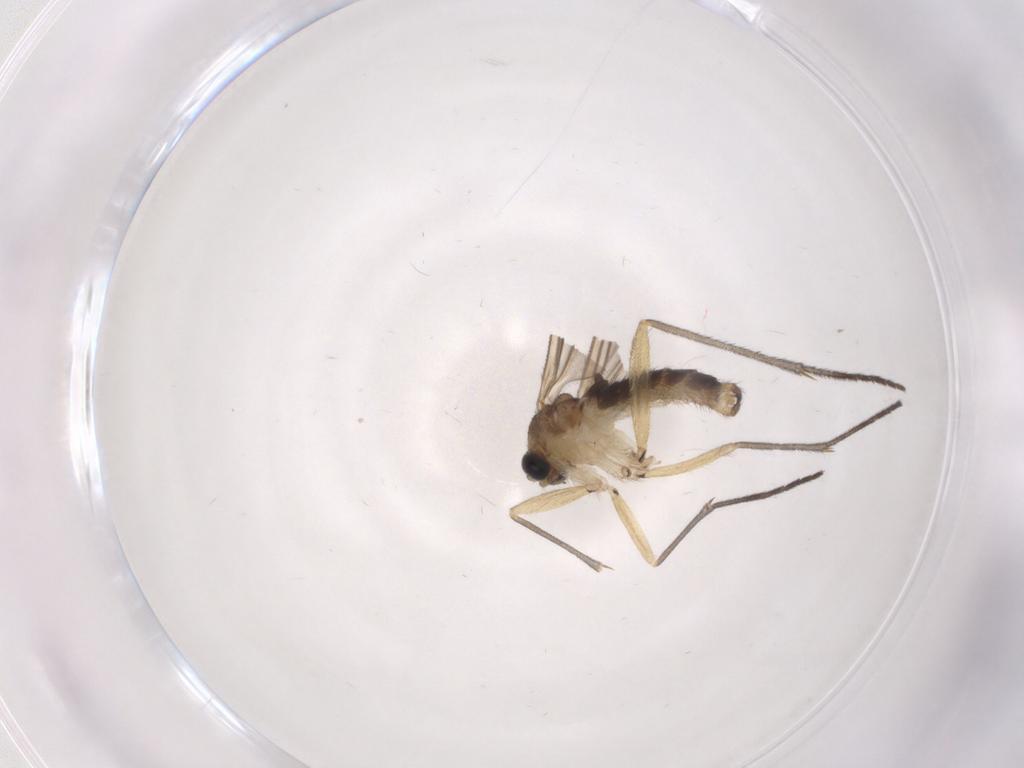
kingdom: Animalia
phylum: Arthropoda
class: Insecta
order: Diptera
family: Sciaridae
